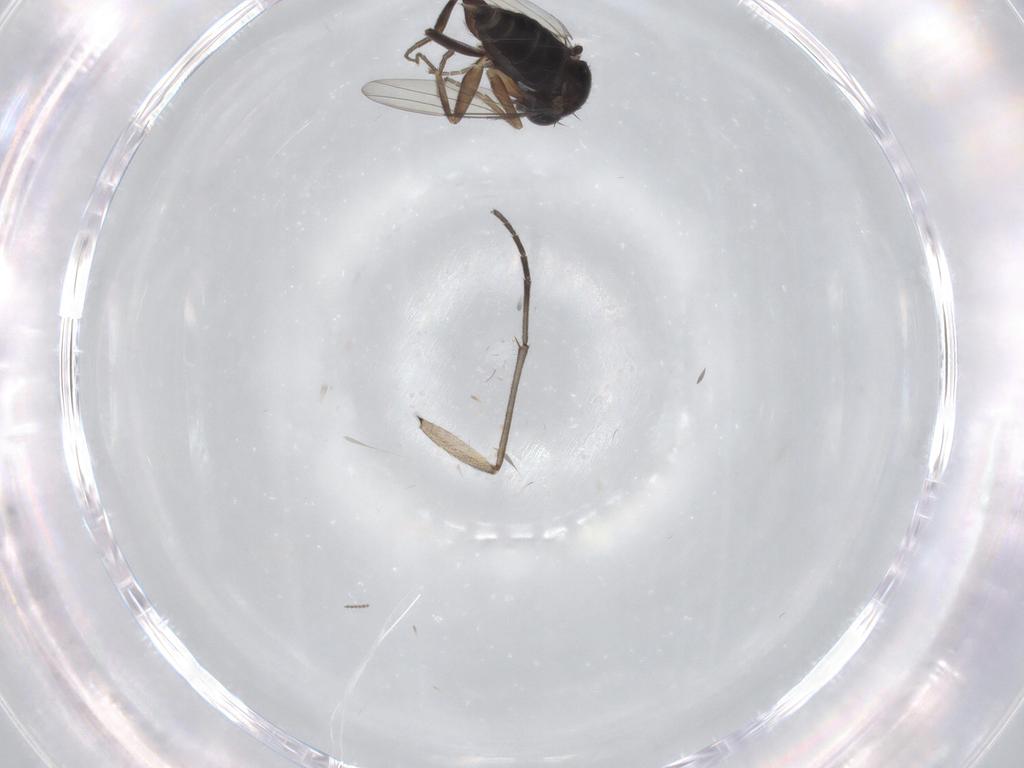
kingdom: Animalia
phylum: Arthropoda
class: Insecta
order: Diptera
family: Phoridae
